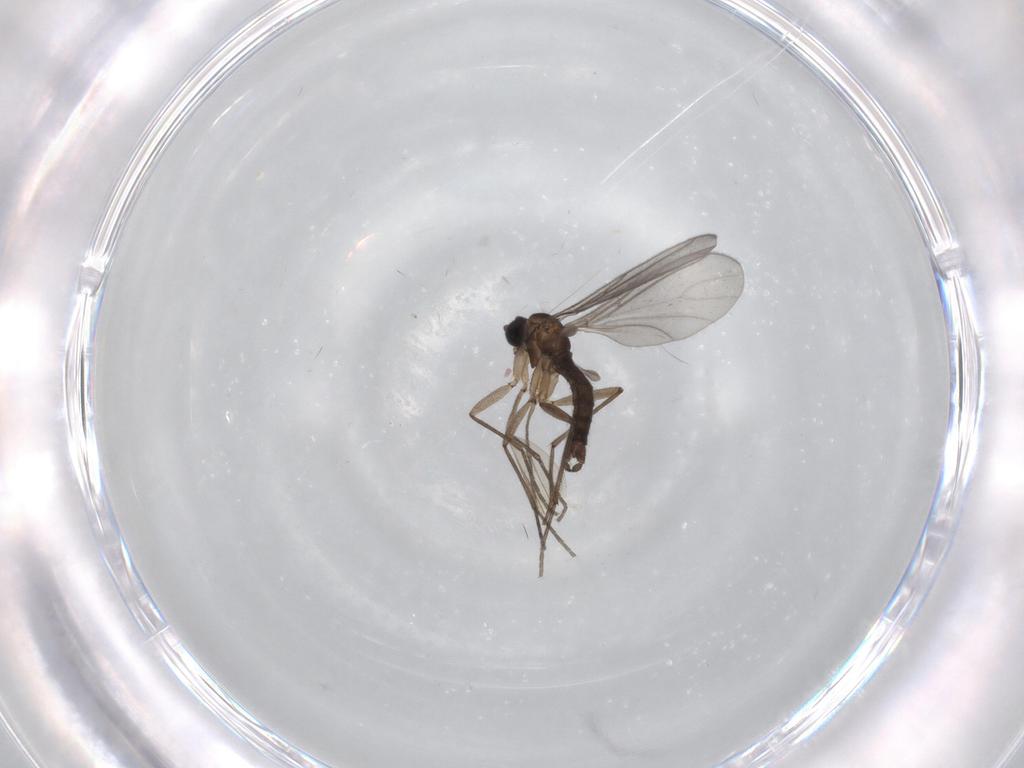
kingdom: Animalia
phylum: Arthropoda
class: Insecta
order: Diptera
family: Sciaridae
